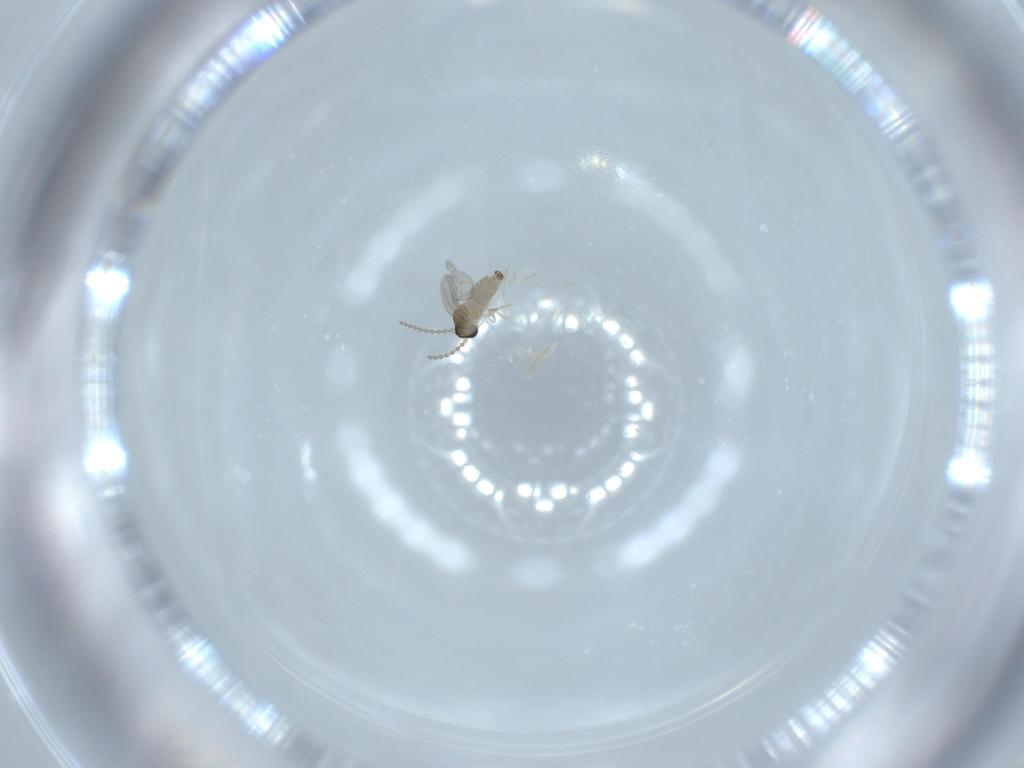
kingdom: Animalia
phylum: Arthropoda
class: Insecta
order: Diptera
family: Cecidomyiidae
